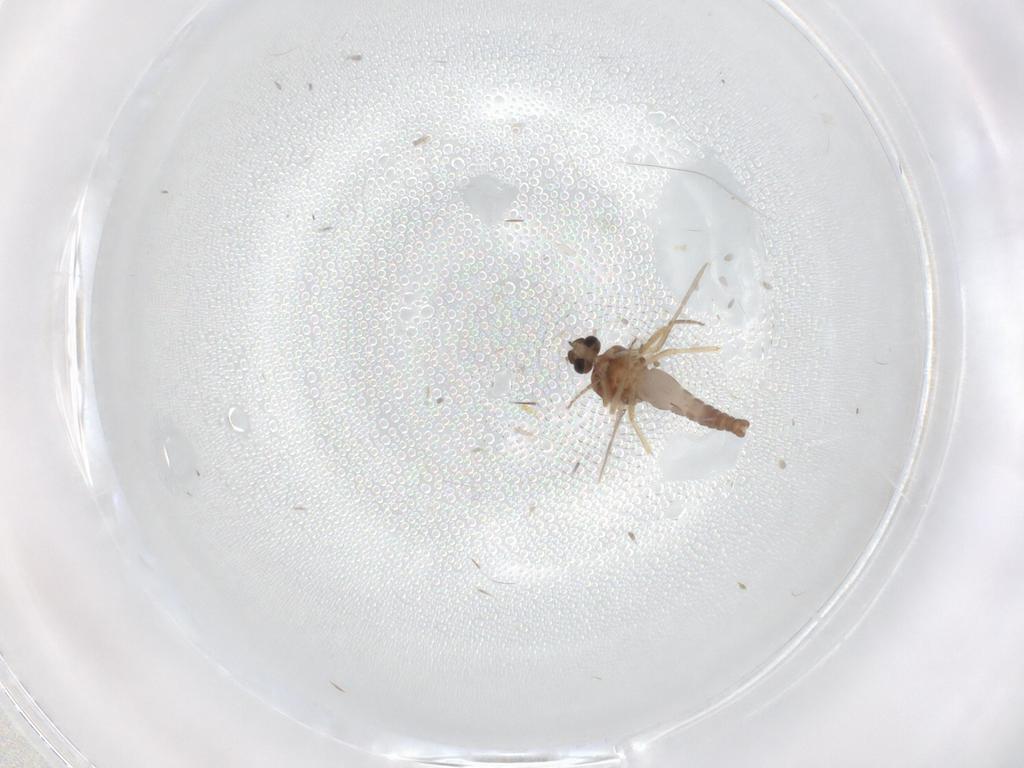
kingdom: Animalia
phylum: Arthropoda
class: Insecta
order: Diptera
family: Ceratopogonidae
